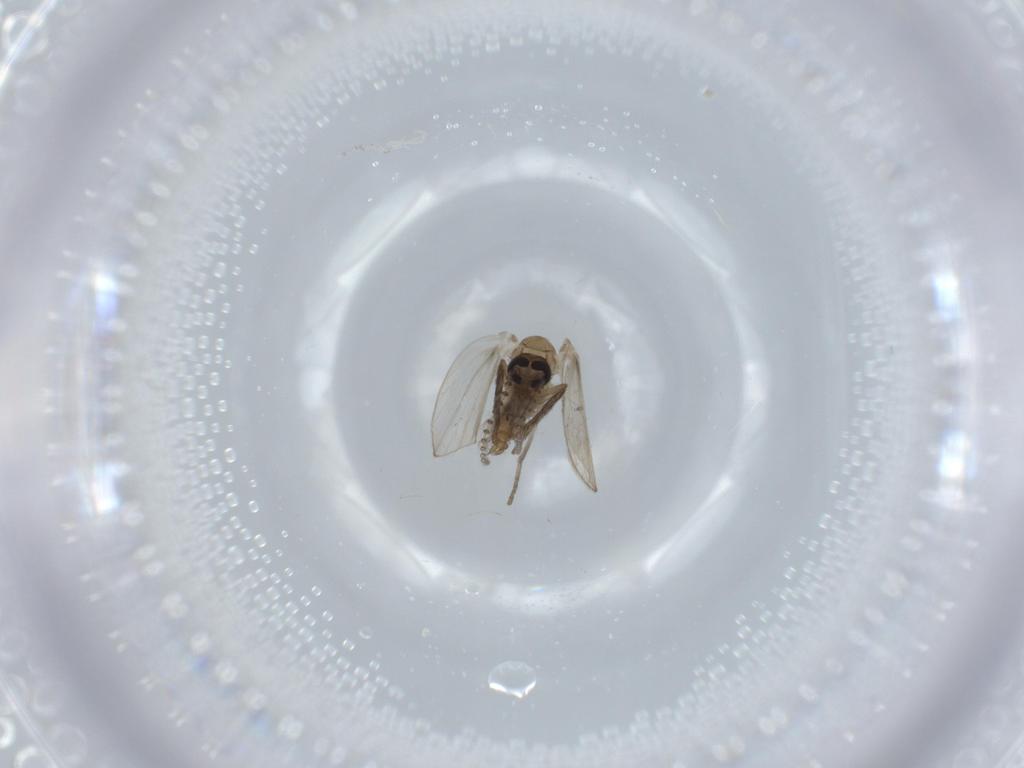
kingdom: Animalia
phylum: Arthropoda
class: Insecta
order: Diptera
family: Psychodidae
